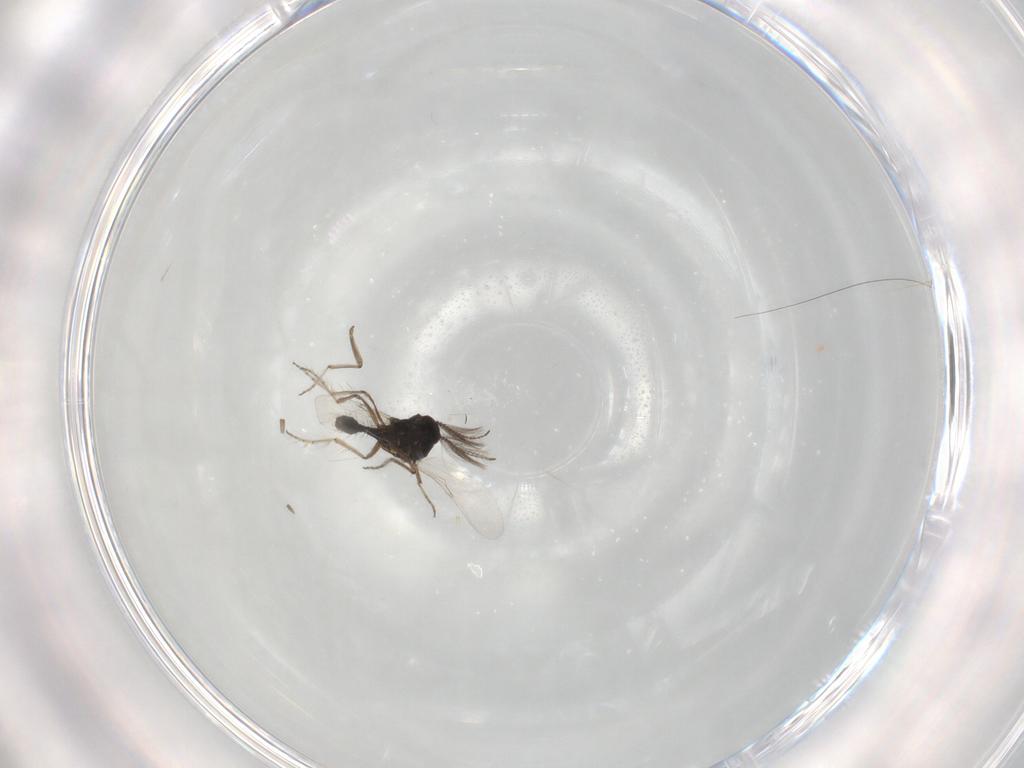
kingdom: Animalia
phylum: Arthropoda
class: Insecta
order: Diptera
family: Ceratopogonidae
